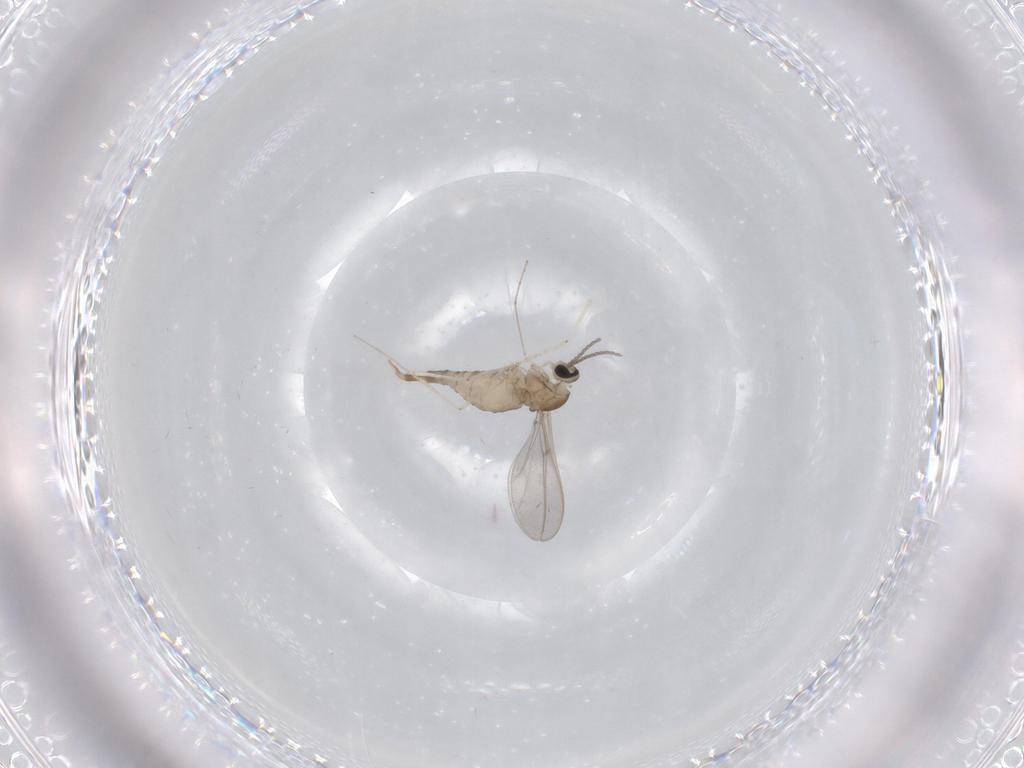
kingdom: Animalia
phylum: Arthropoda
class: Insecta
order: Diptera
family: Cecidomyiidae
